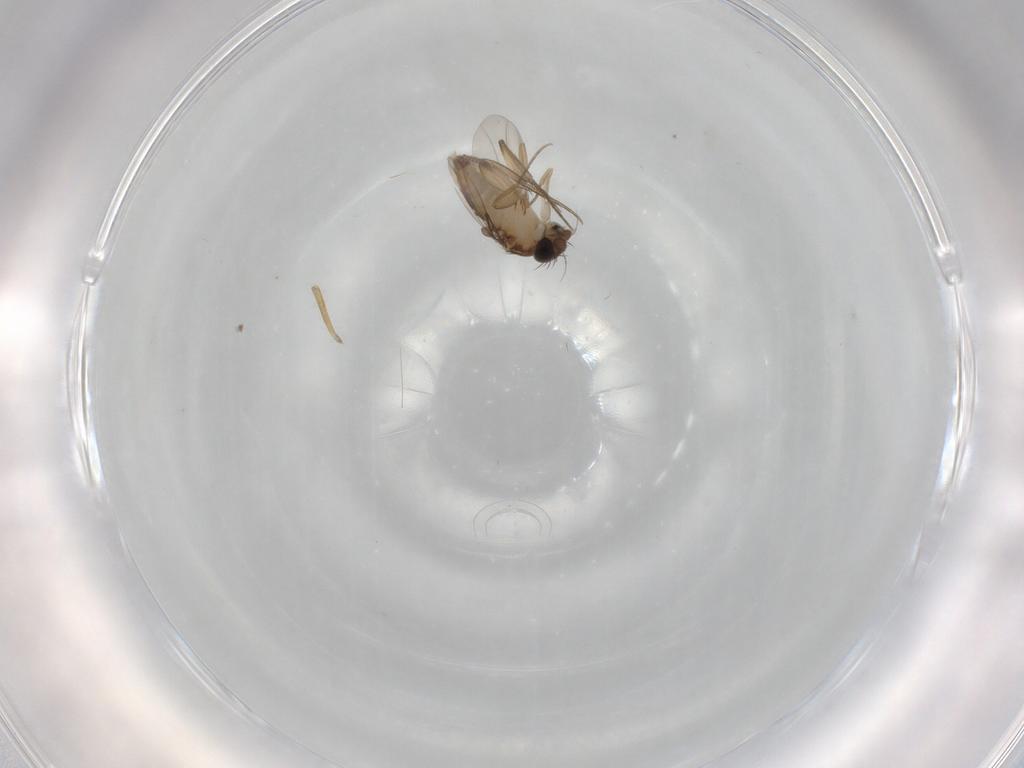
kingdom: Animalia
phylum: Arthropoda
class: Insecta
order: Diptera
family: Phoridae
